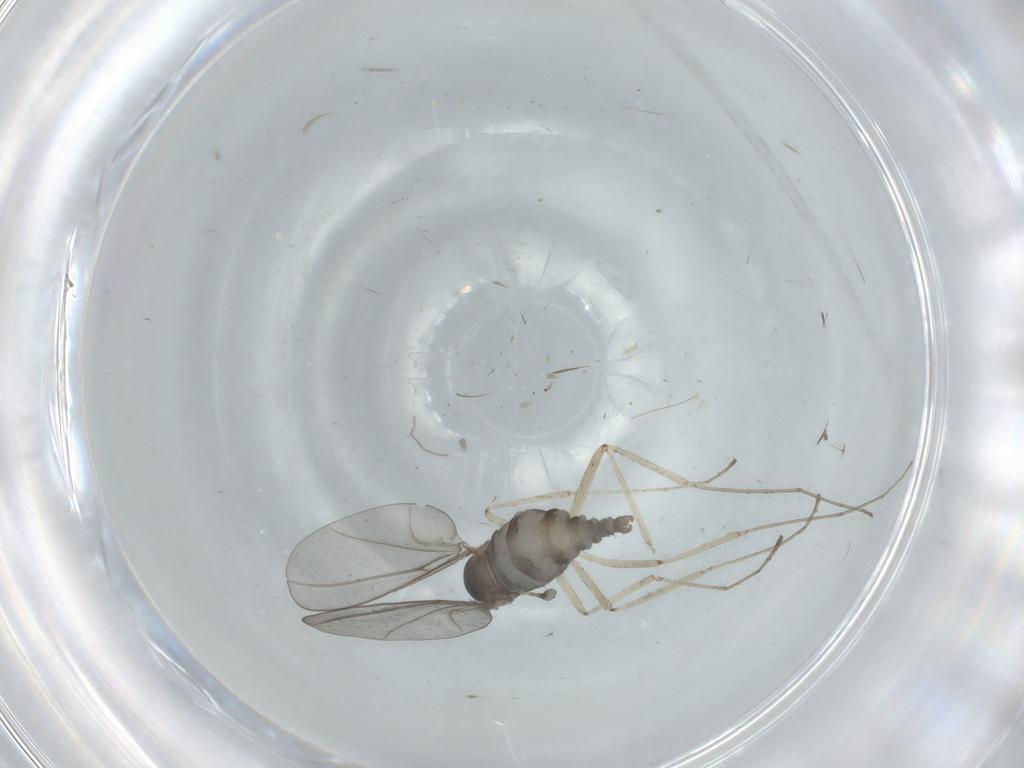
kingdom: Animalia
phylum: Arthropoda
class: Insecta
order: Diptera
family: Cecidomyiidae
